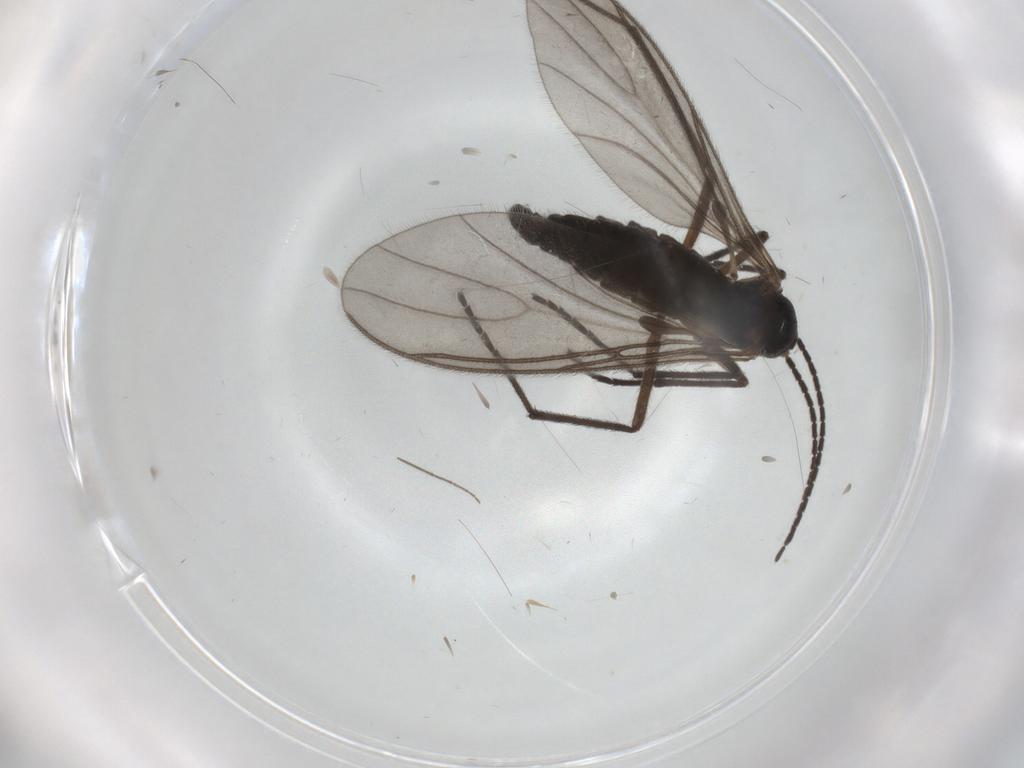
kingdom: Animalia
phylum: Arthropoda
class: Insecta
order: Diptera
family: Sciaridae
